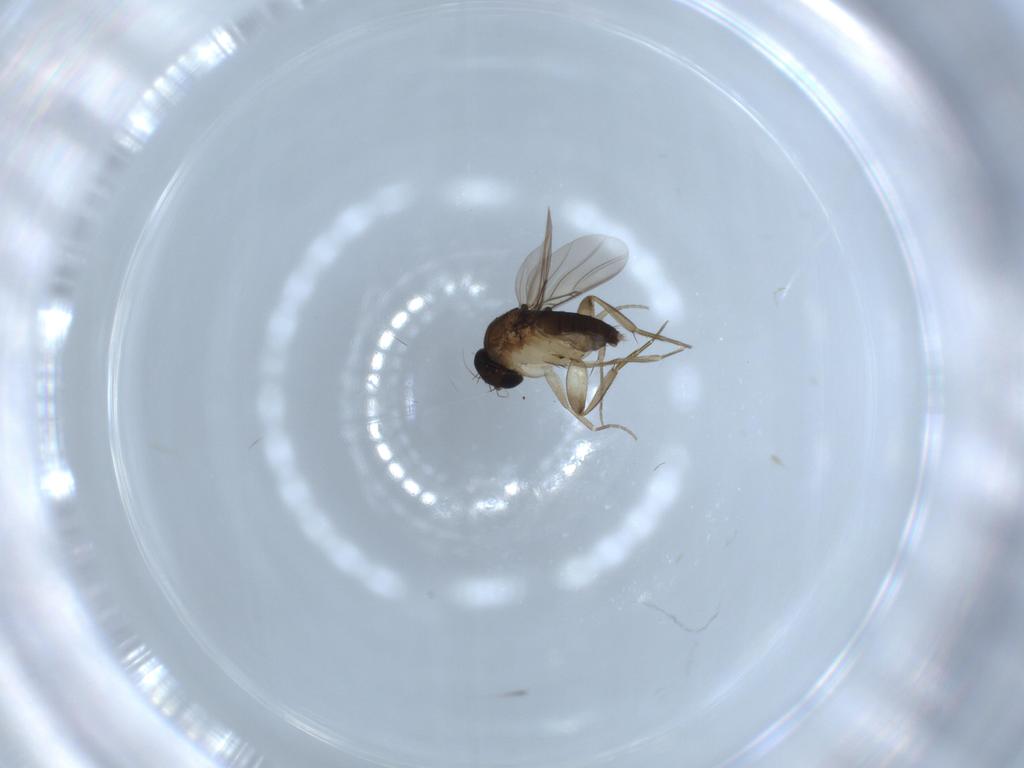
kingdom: Animalia
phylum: Arthropoda
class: Insecta
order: Diptera
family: Phoridae
